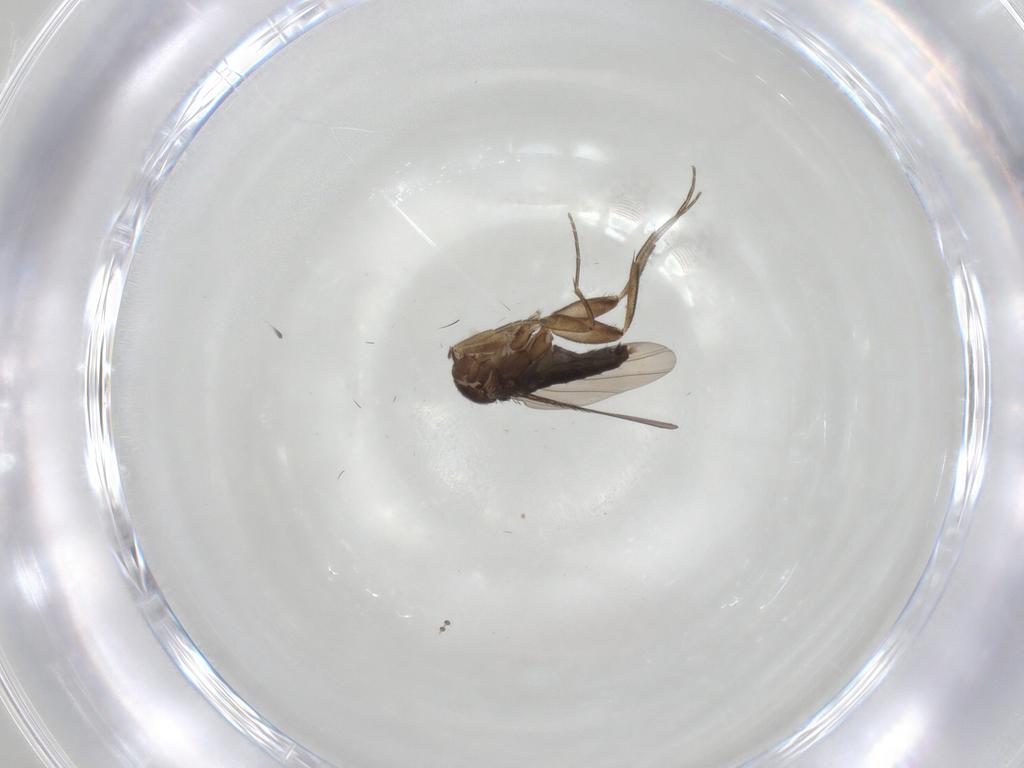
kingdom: Animalia
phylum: Arthropoda
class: Insecta
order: Diptera
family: Phoridae
